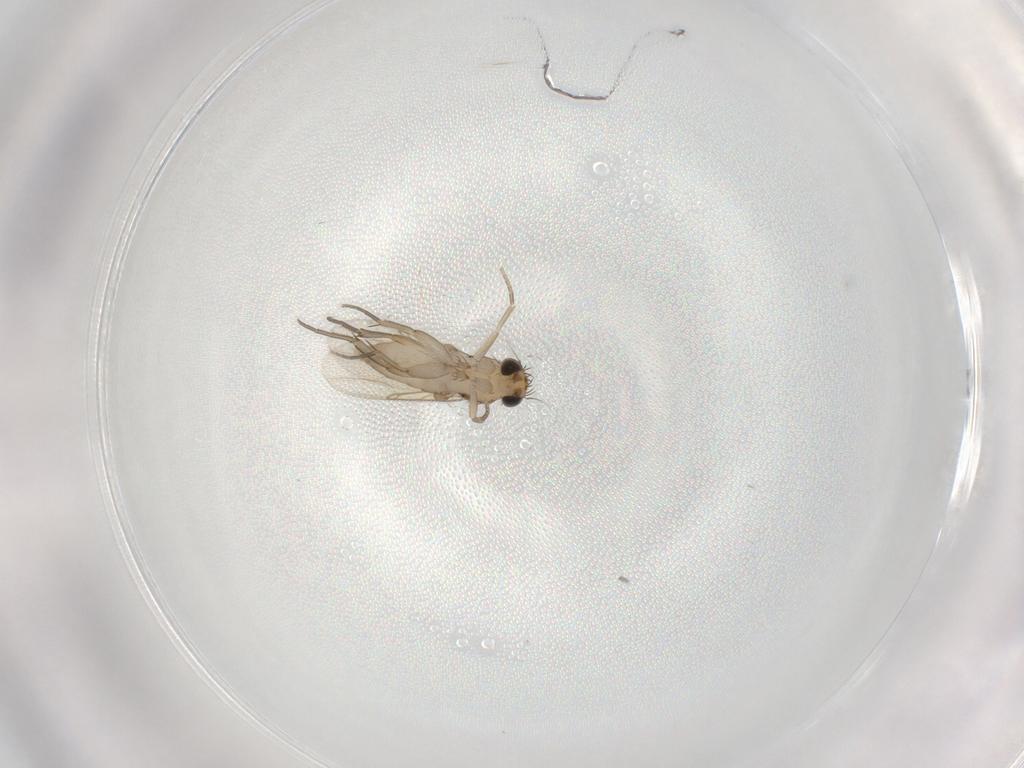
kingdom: Animalia
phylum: Arthropoda
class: Insecta
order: Diptera
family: Phoridae
